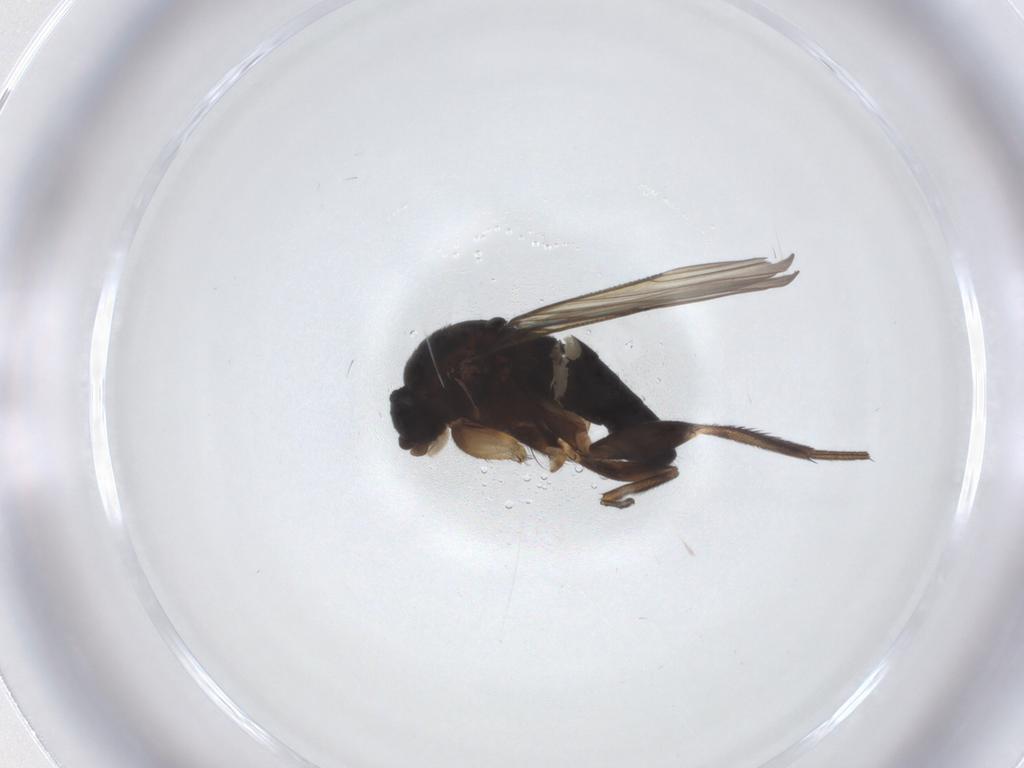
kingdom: Animalia
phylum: Arthropoda
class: Insecta
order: Diptera
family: Phoridae
